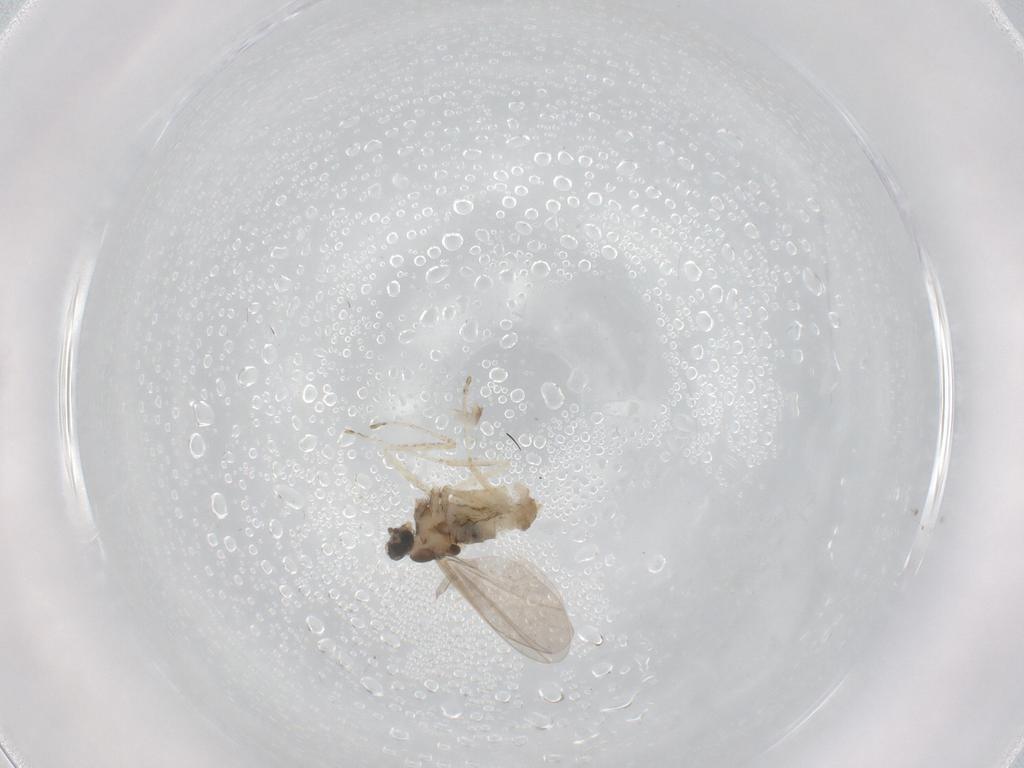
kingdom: Animalia
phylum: Arthropoda
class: Insecta
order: Diptera
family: Cecidomyiidae
